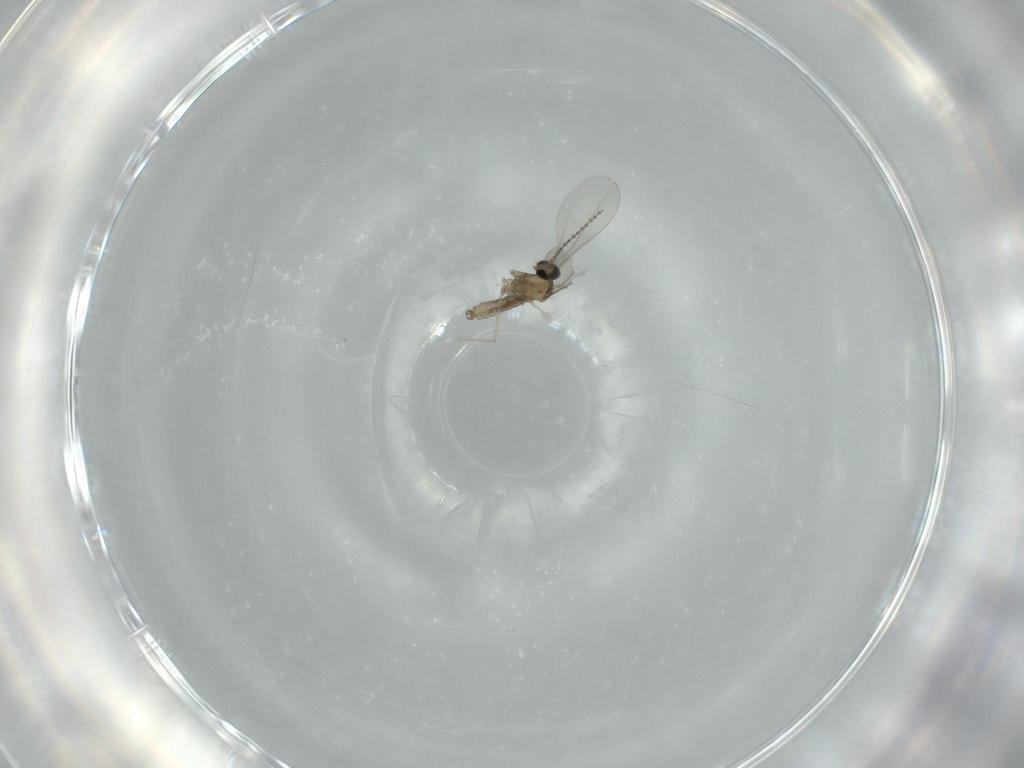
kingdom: Animalia
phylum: Arthropoda
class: Insecta
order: Diptera
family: Cecidomyiidae
